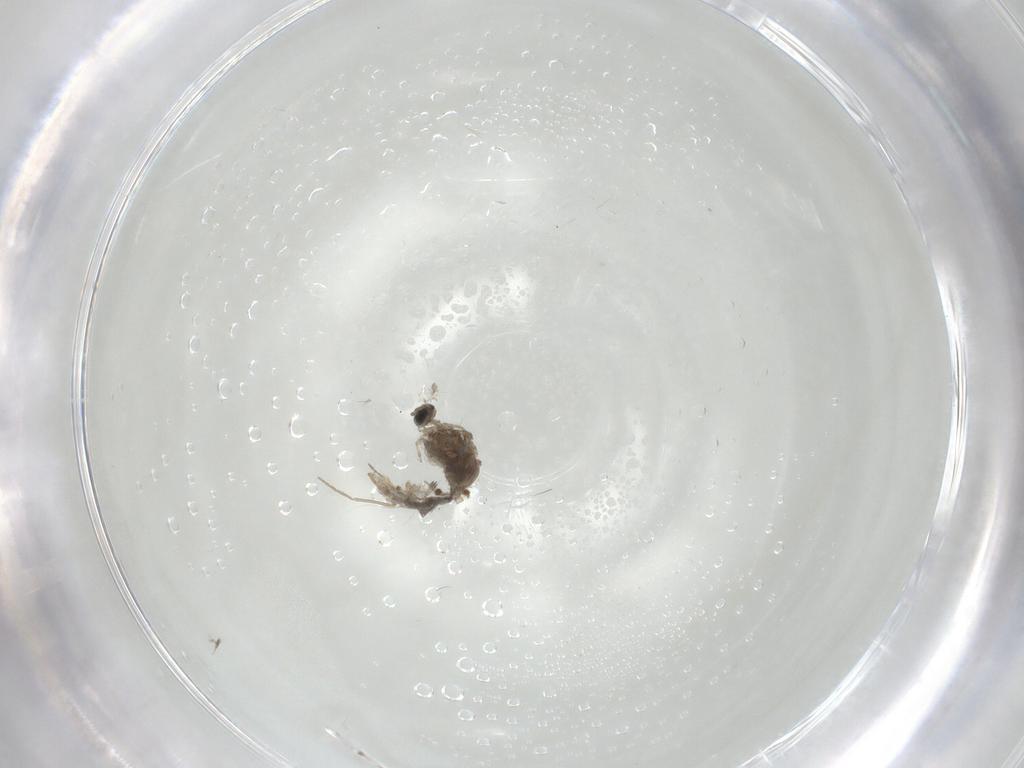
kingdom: Animalia
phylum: Arthropoda
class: Insecta
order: Diptera
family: Cecidomyiidae
